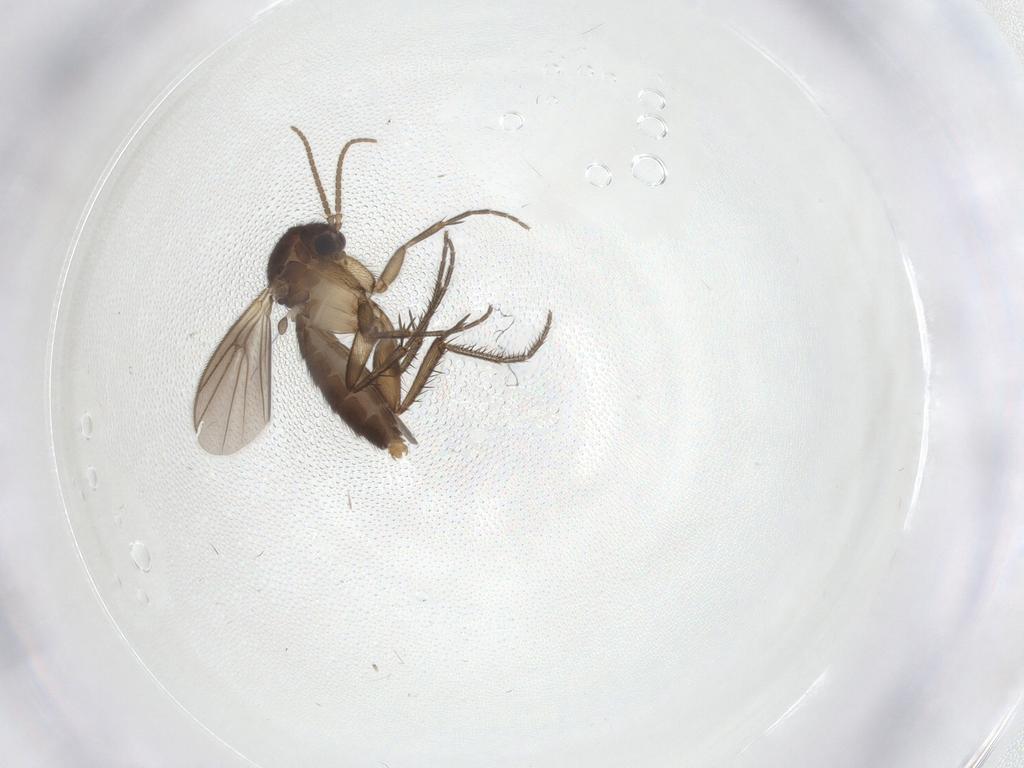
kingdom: Animalia
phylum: Arthropoda
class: Insecta
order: Diptera
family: Mycetophilidae
